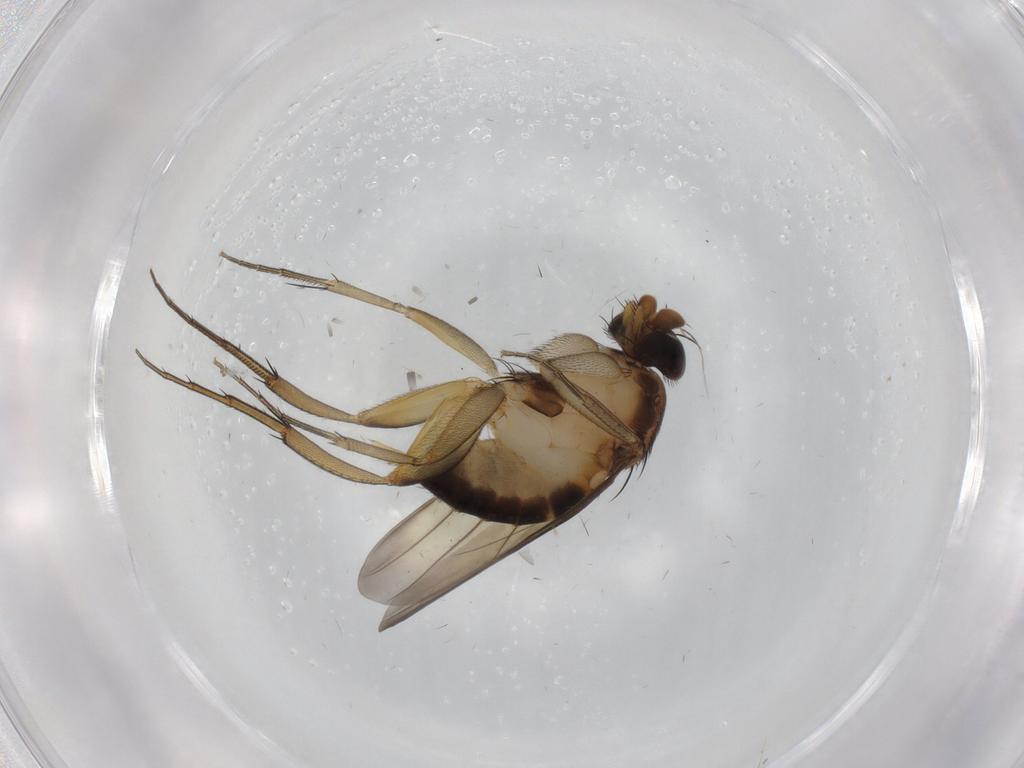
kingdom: Animalia
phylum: Arthropoda
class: Insecta
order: Diptera
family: Phoridae
